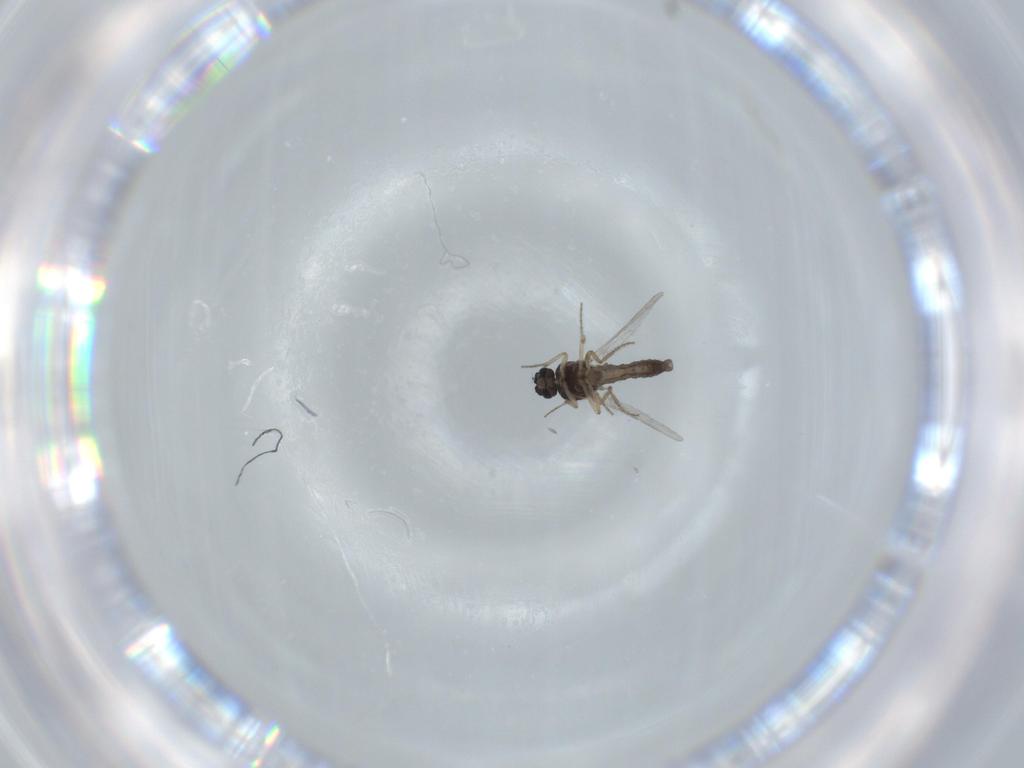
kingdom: Animalia
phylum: Arthropoda
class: Insecta
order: Diptera
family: Ceratopogonidae
